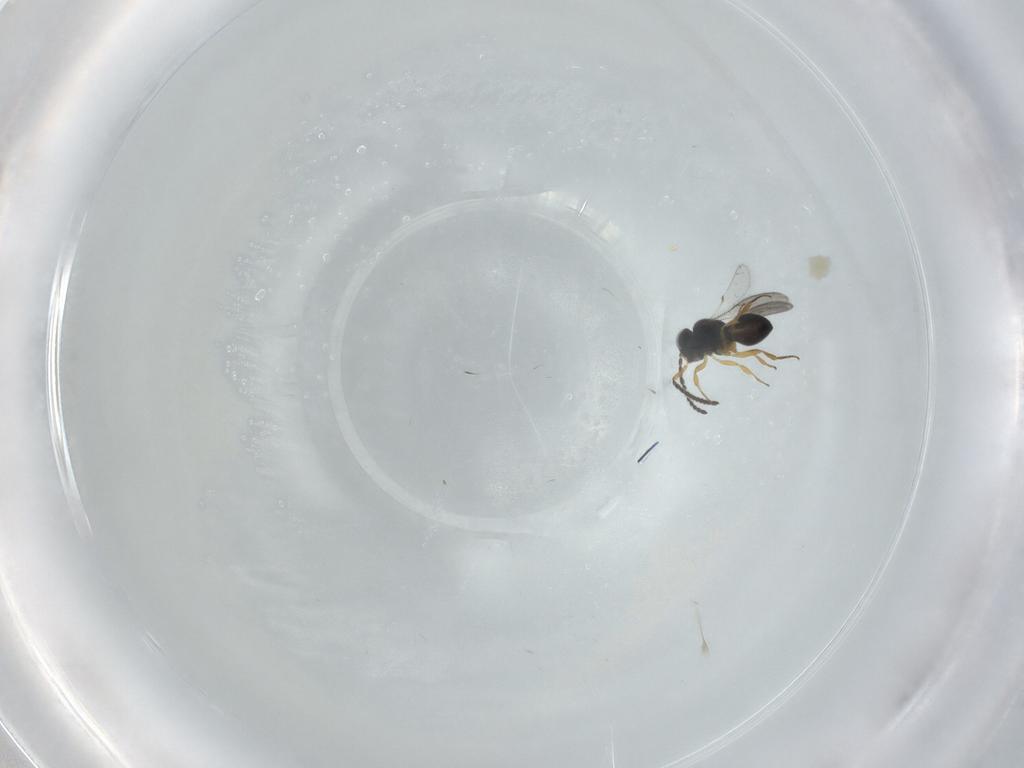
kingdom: Animalia
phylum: Arthropoda
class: Insecta
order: Hymenoptera
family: Scelionidae
